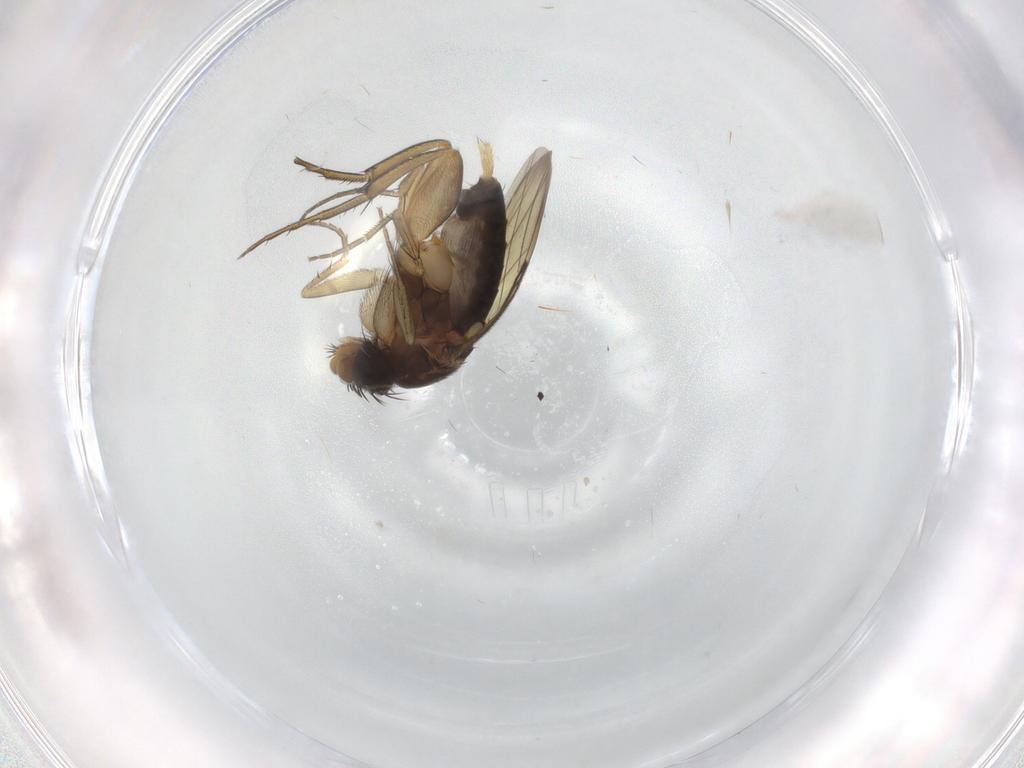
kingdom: Animalia
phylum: Arthropoda
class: Insecta
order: Diptera
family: Phoridae
